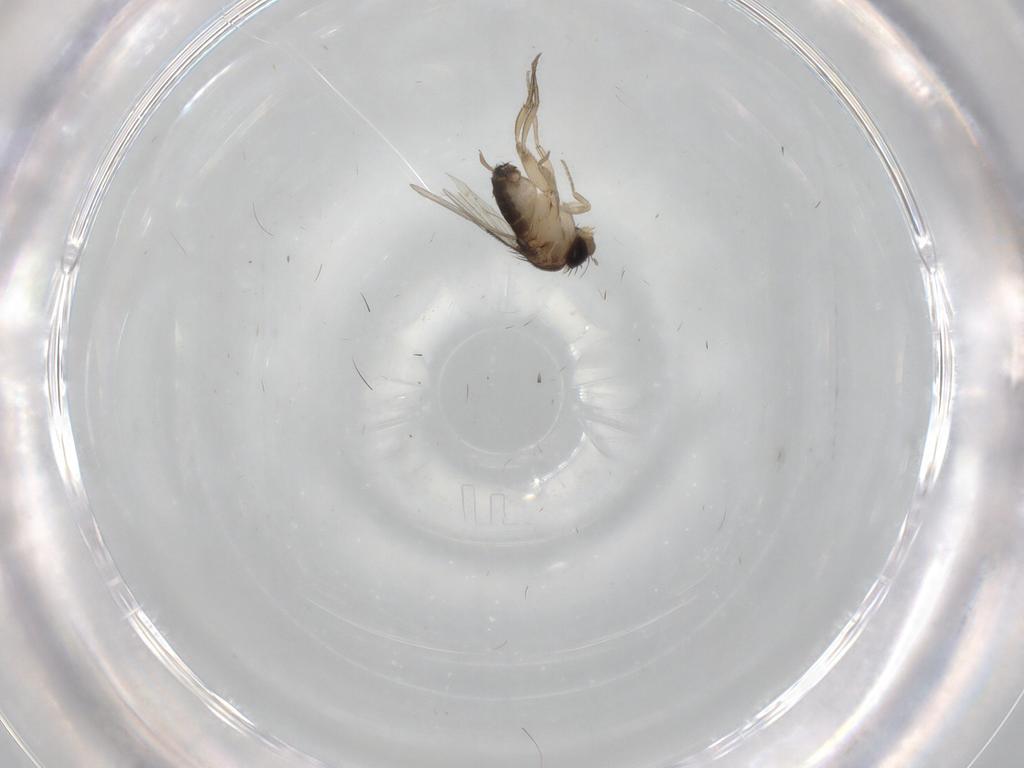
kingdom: Animalia
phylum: Arthropoda
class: Insecta
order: Diptera
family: Chironomidae
